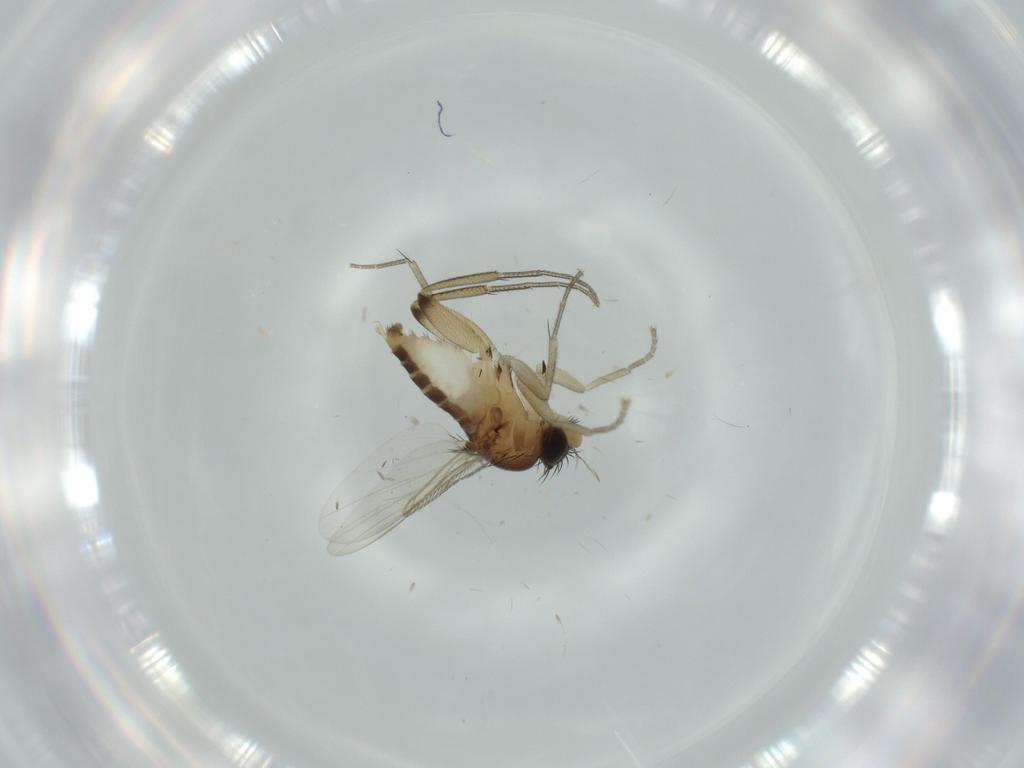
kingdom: Animalia
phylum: Arthropoda
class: Insecta
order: Diptera
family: Phoridae
